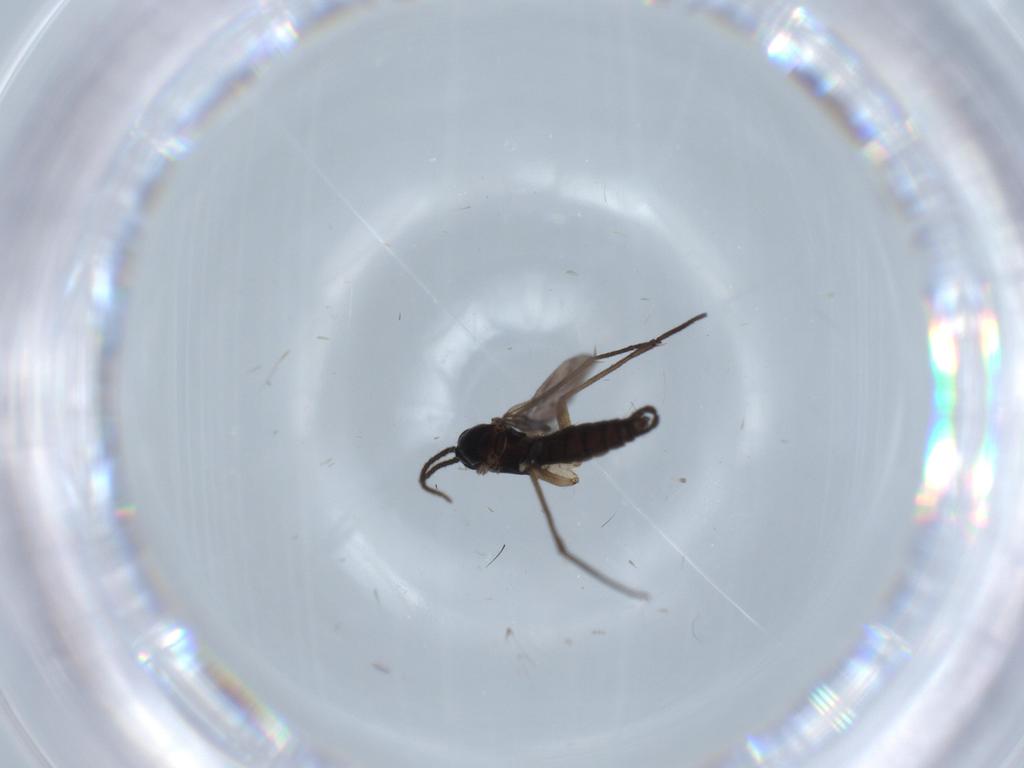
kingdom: Animalia
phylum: Arthropoda
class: Insecta
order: Diptera
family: Sciaridae
